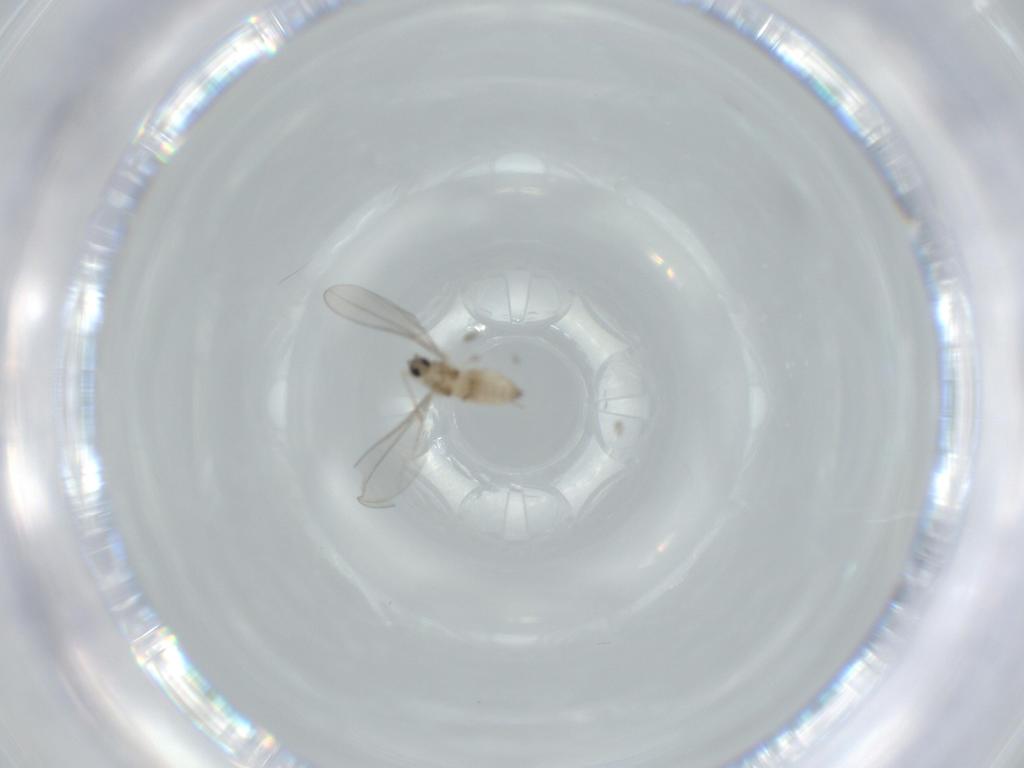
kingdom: Animalia
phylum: Arthropoda
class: Insecta
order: Diptera
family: Cecidomyiidae
